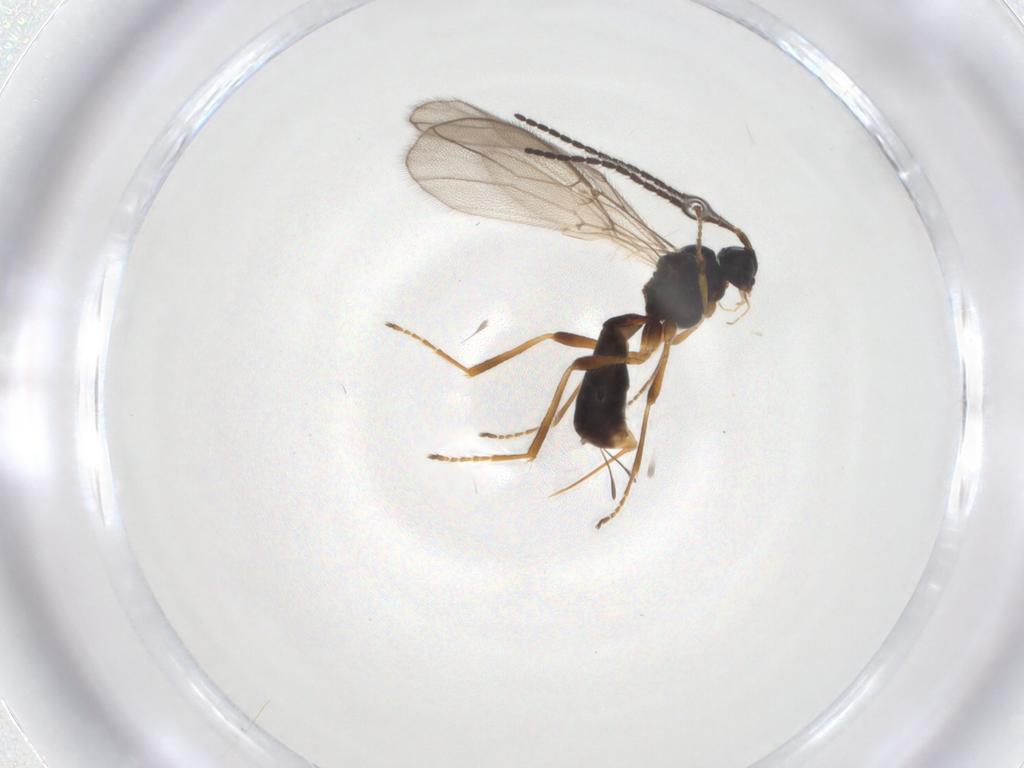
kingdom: Animalia
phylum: Arthropoda
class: Insecta
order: Hymenoptera
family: Braconidae
